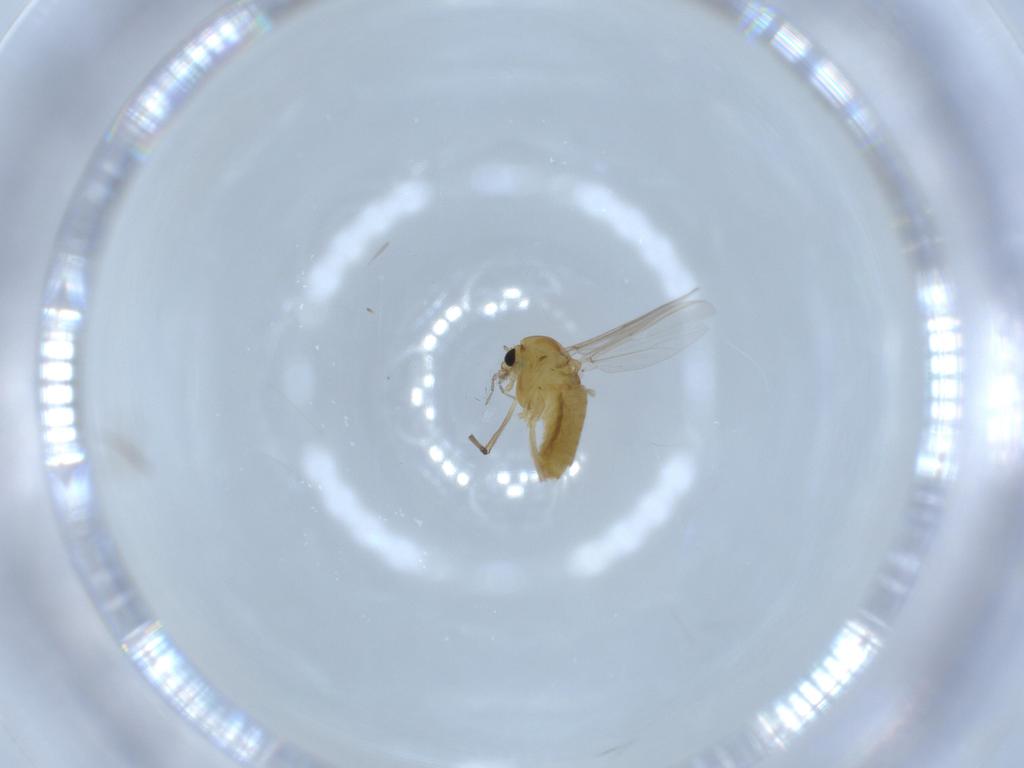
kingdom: Animalia
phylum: Arthropoda
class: Insecta
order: Diptera
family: Chironomidae
